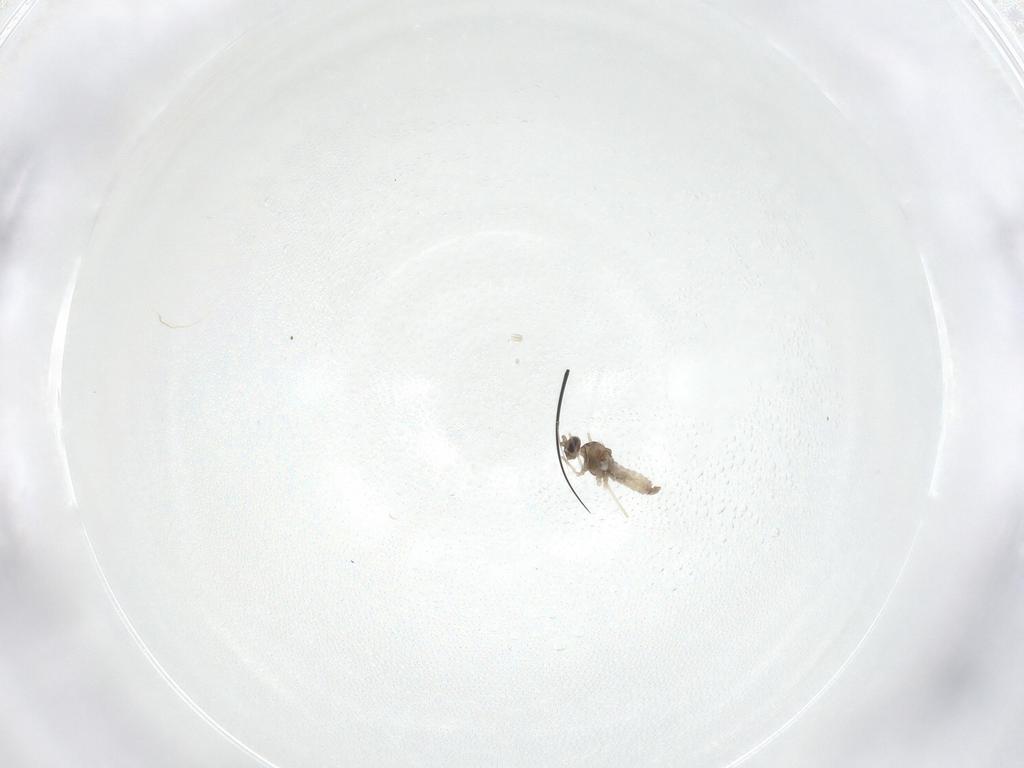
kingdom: Animalia
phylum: Arthropoda
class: Insecta
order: Diptera
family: Cecidomyiidae
